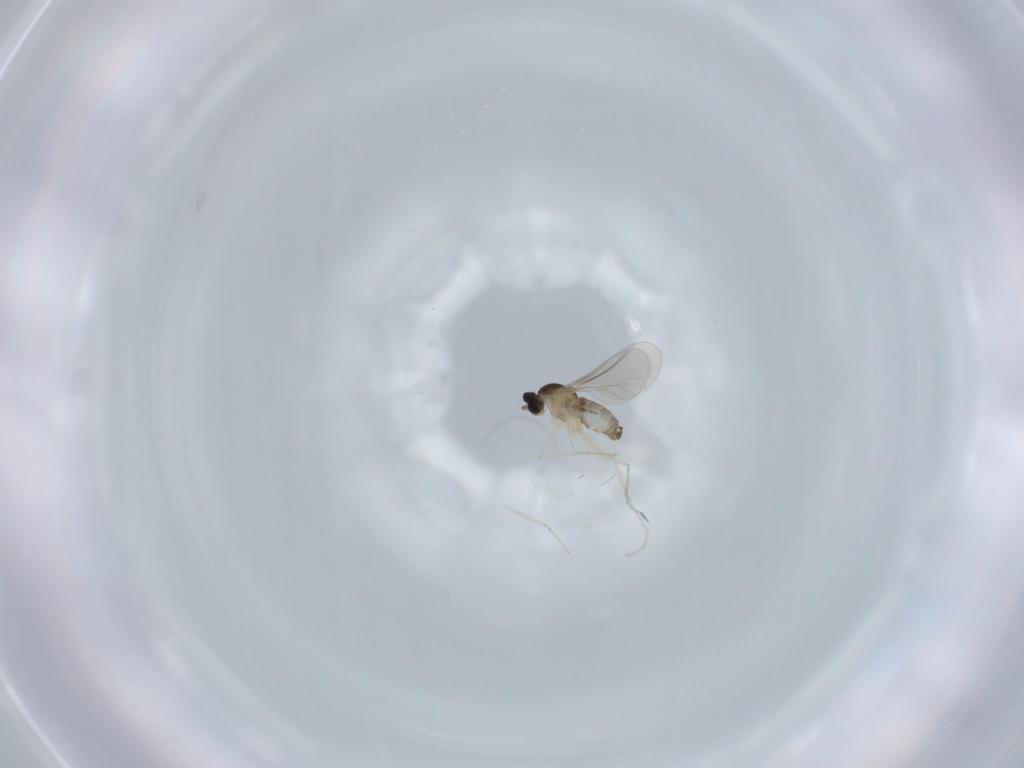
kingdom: Animalia
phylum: Arthropoda
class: Insecta
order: Diptera
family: Cecidomyiidae
